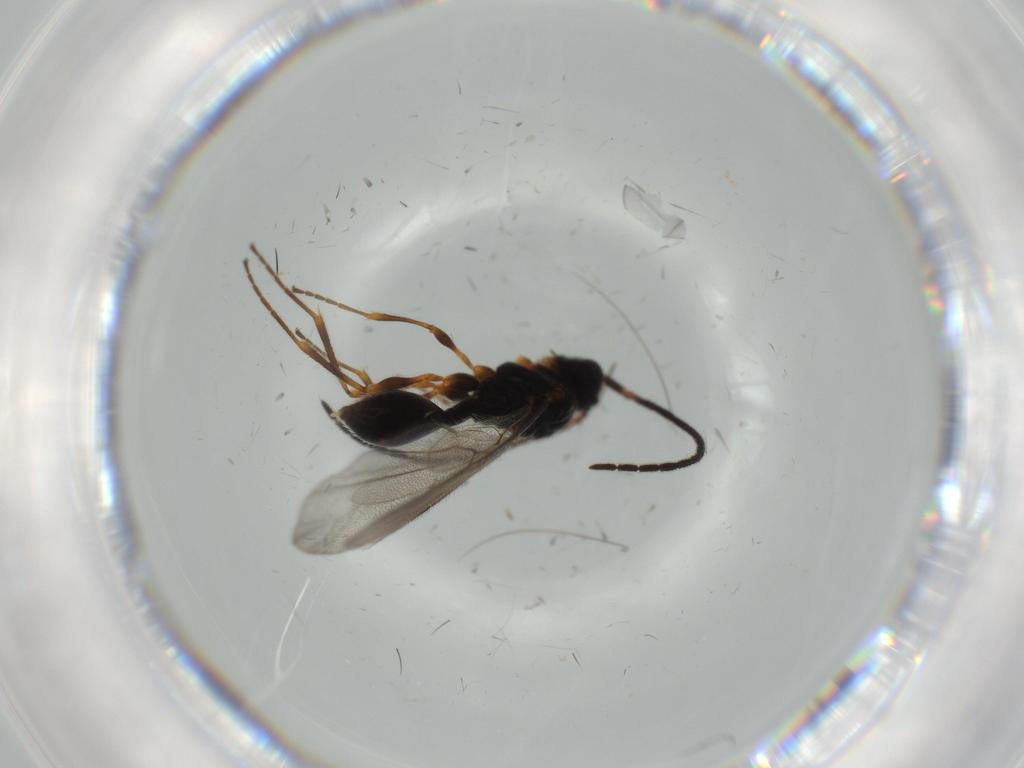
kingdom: Animalia
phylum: Arthropoda
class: Insecta
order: Hymenoptera
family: Diapriidae
